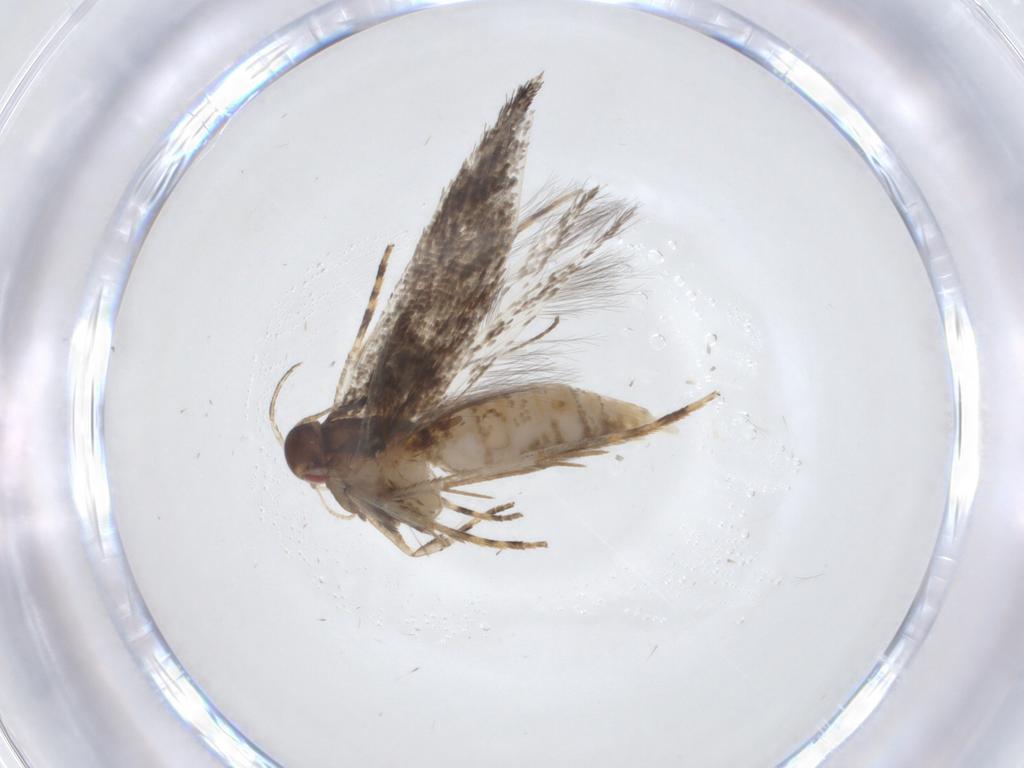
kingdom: Animalia
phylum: Arthropoda
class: Insecta
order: Lepidoptera
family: Cosmopterigidae
